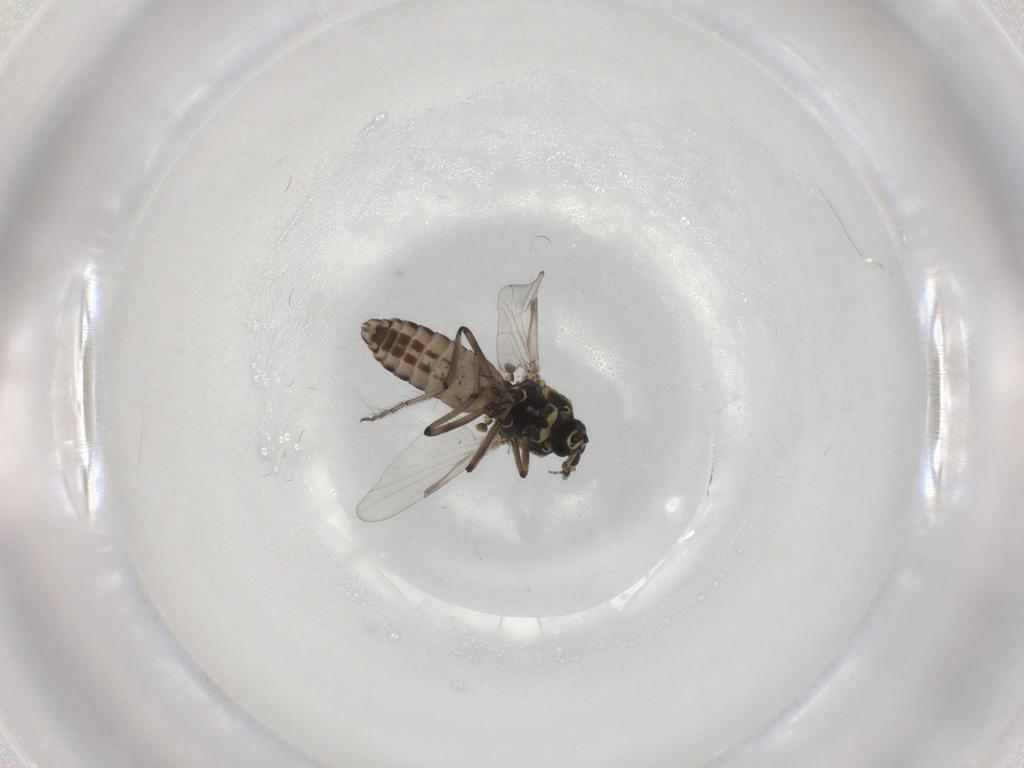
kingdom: Animalia
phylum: Arthropoda
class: Insecta
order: Diptera
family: Ceratopogonidae
